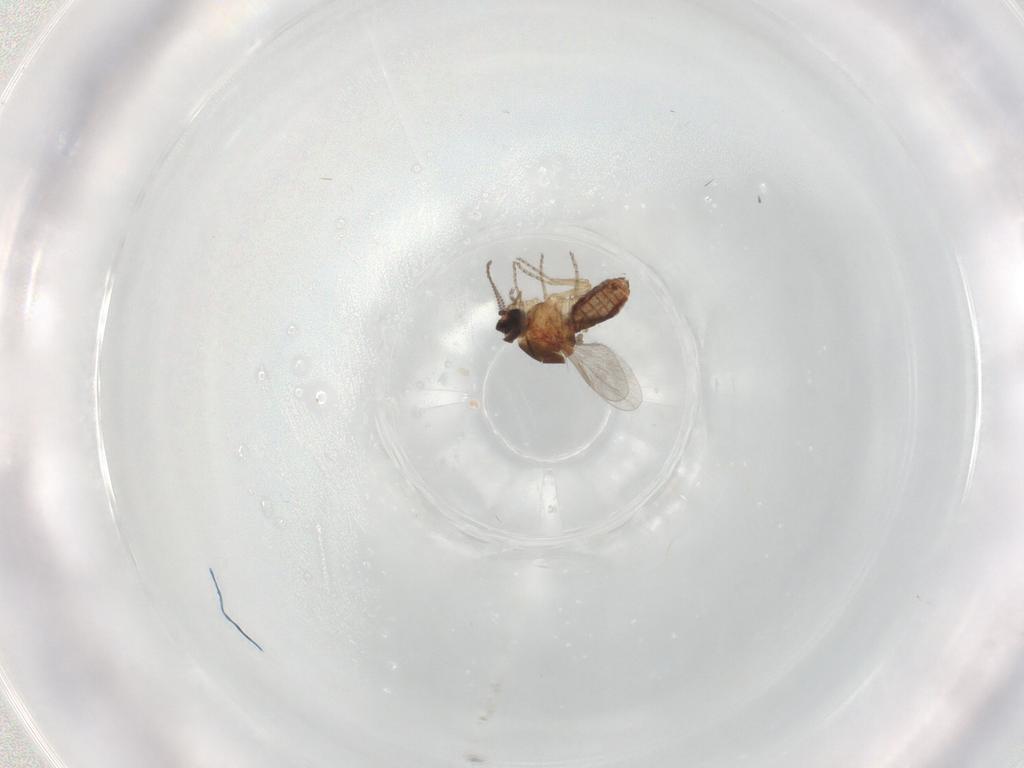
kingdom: Animalia
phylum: Arthropoda
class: Insecta
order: Diptera
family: Ceratopogonidae
